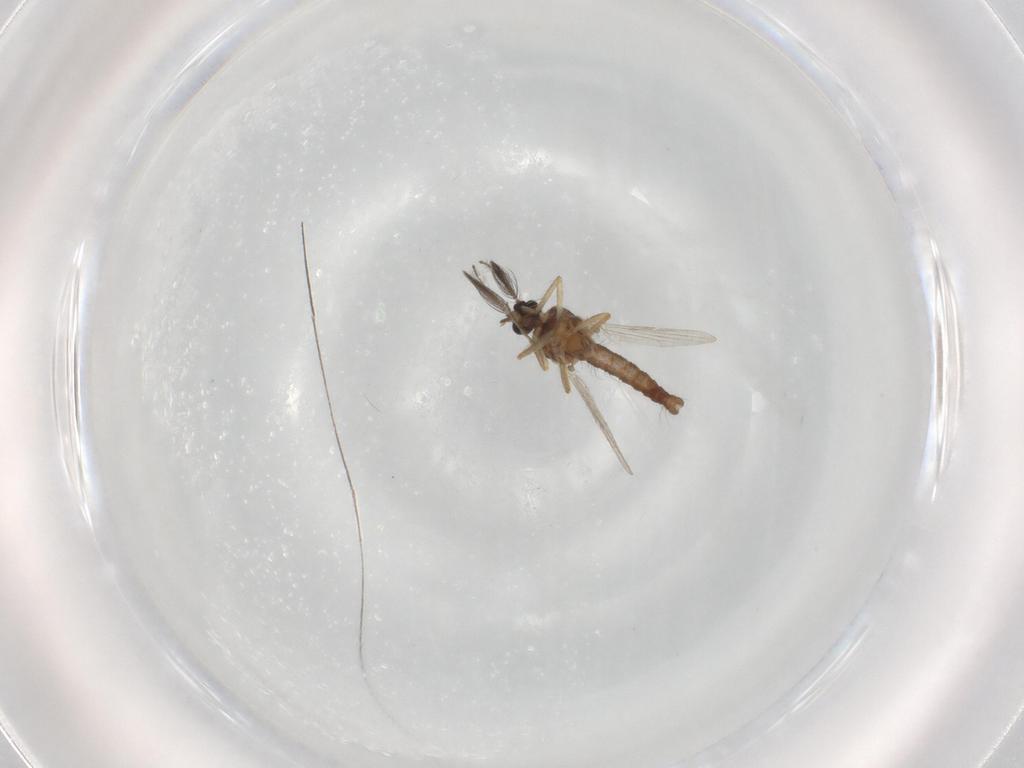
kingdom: Animalia
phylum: Arthropoda
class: Insecta
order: Diptera
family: Ceratopogonidae
